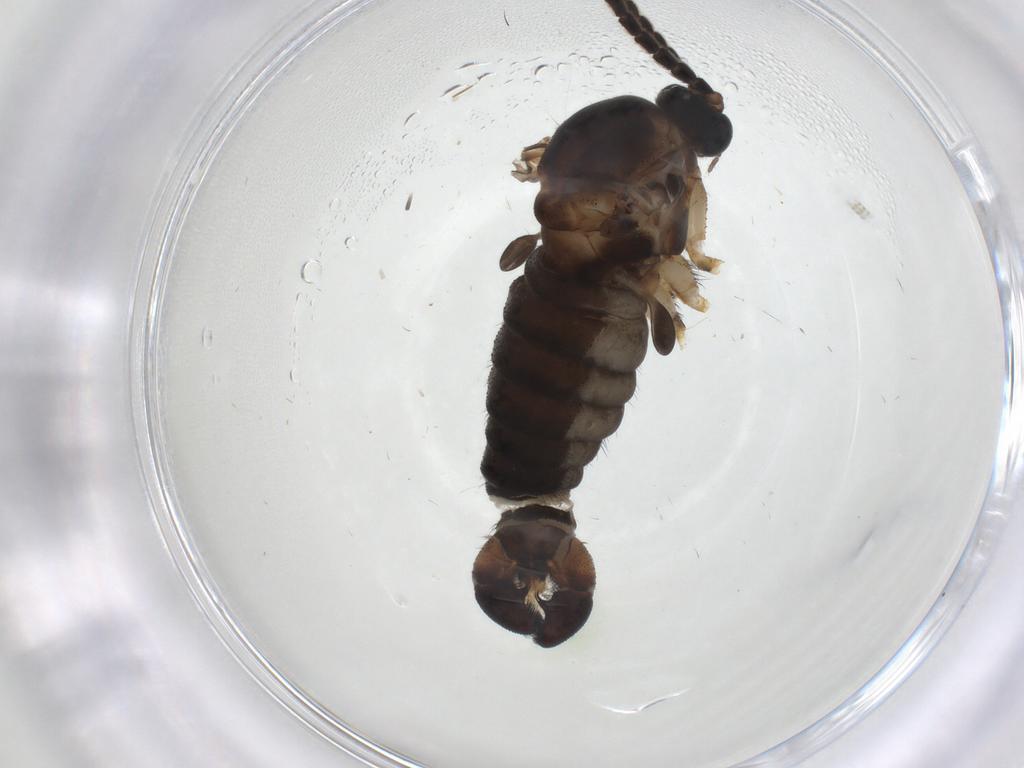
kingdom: Animalia
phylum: Arthropoda
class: Insecta
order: Diptera
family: Sciaridae
